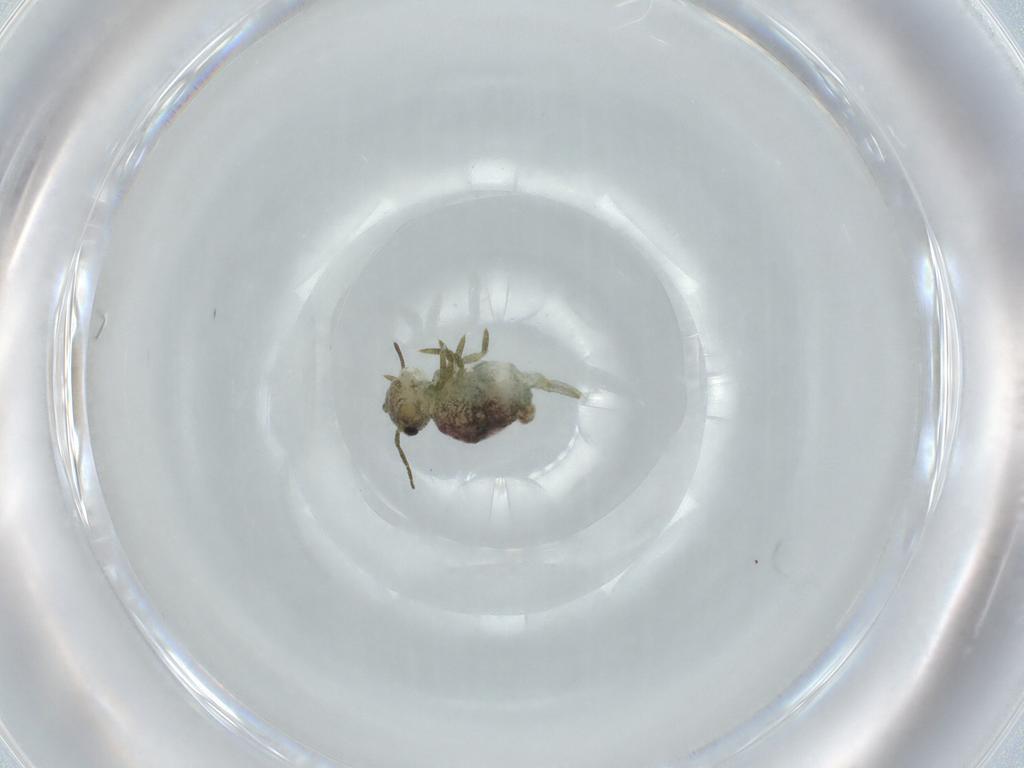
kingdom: Animalia
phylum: Arthropoda
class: Collembola
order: Symphypleona
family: Sminthuridae
